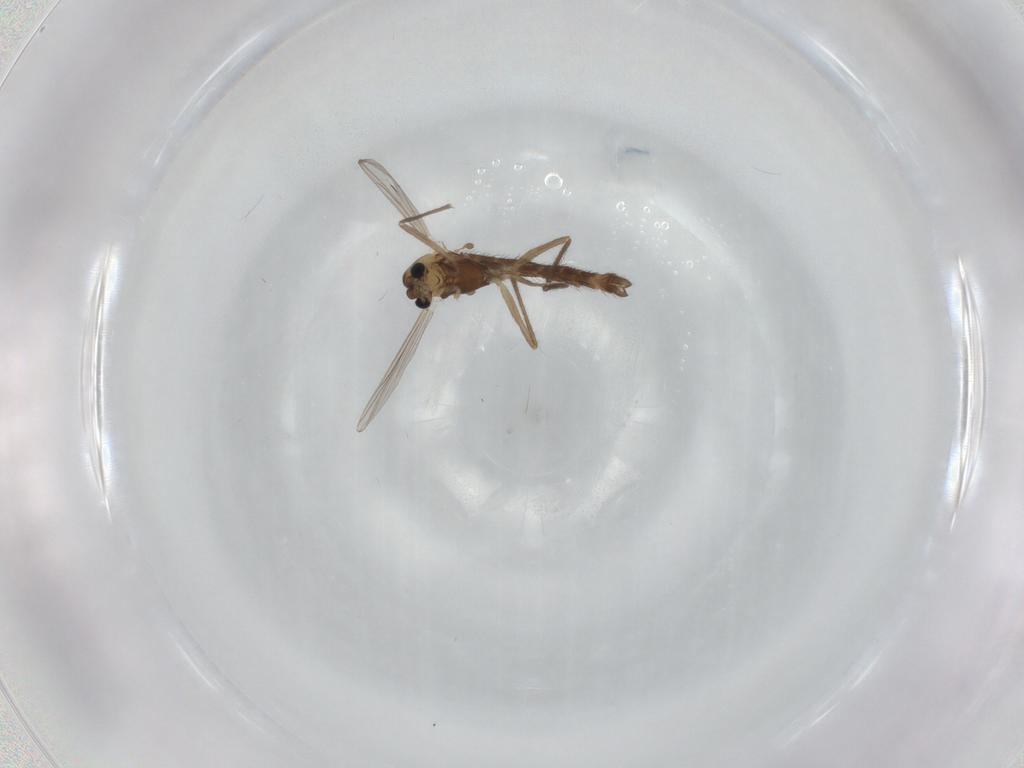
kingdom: Animalia
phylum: Arthropoda
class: Insecta
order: Diptera
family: Chironomidae
